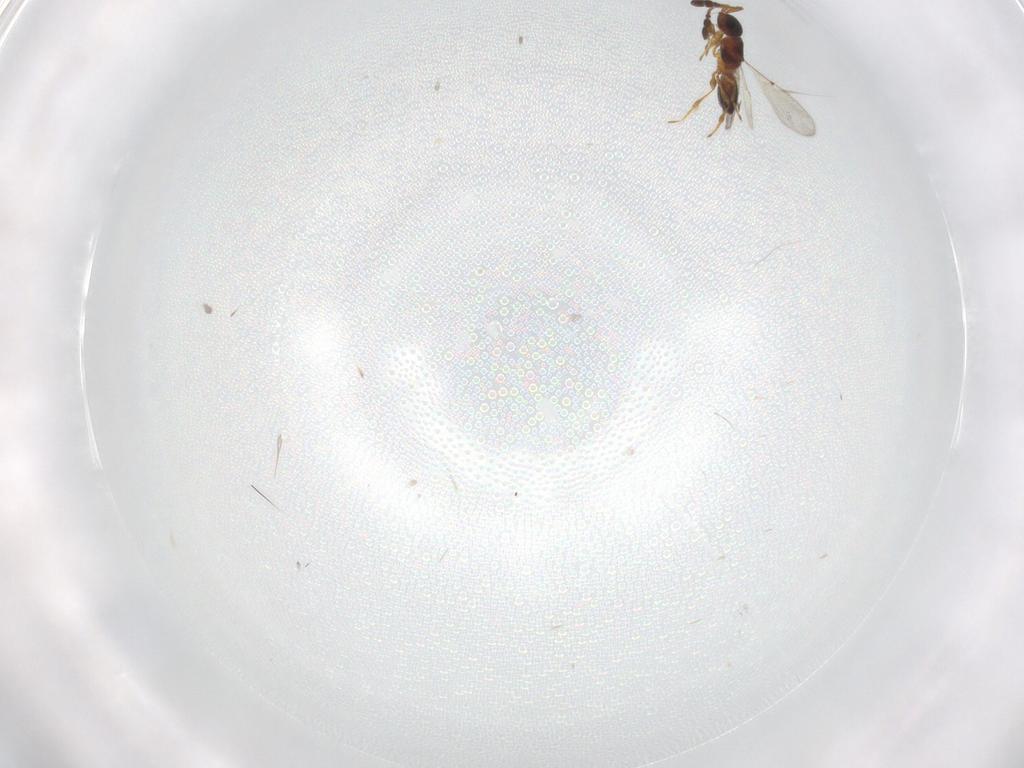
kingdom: Animalia
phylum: Arthropoda
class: Insecta
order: Hymenoptera
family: Diapriidae
